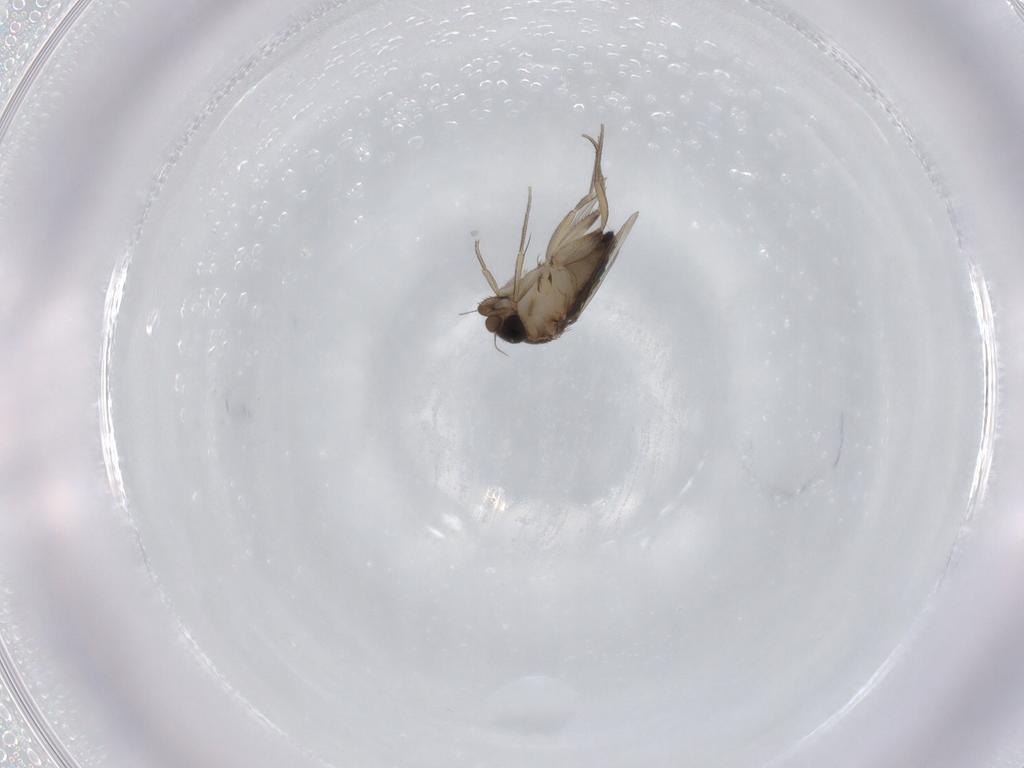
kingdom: Animalia
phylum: Arthropoda
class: Insecta
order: Diptera
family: Phoridae
